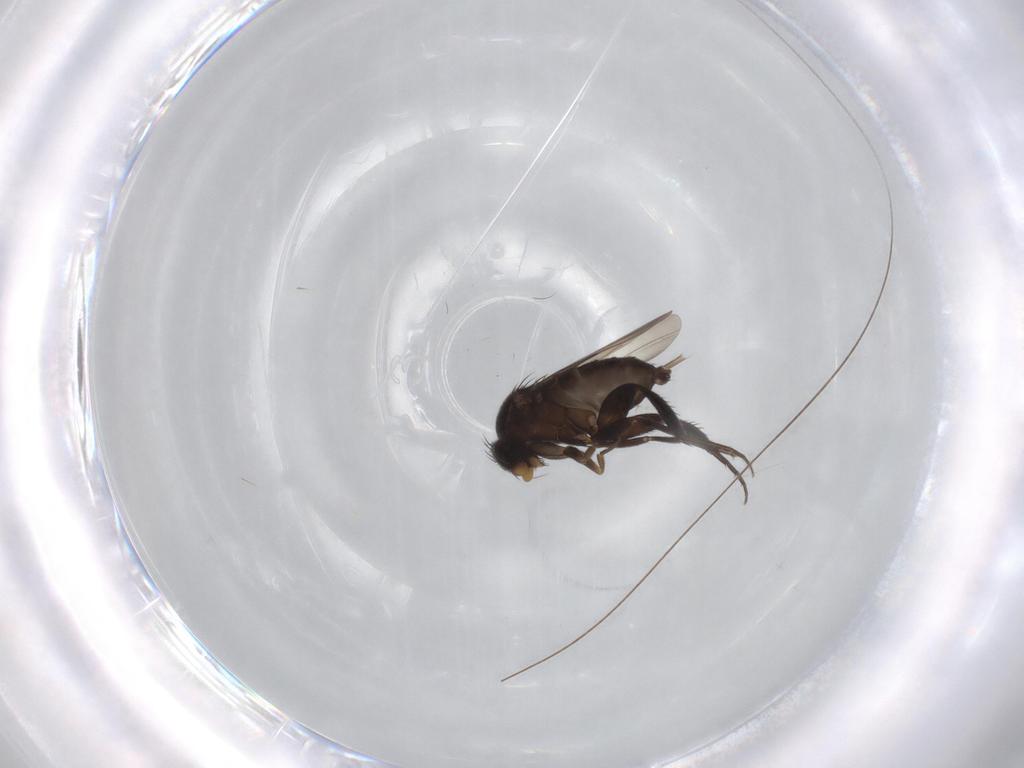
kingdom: Animalia
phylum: Arthropoda
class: Insecta
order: Diptera
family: Phoridae
